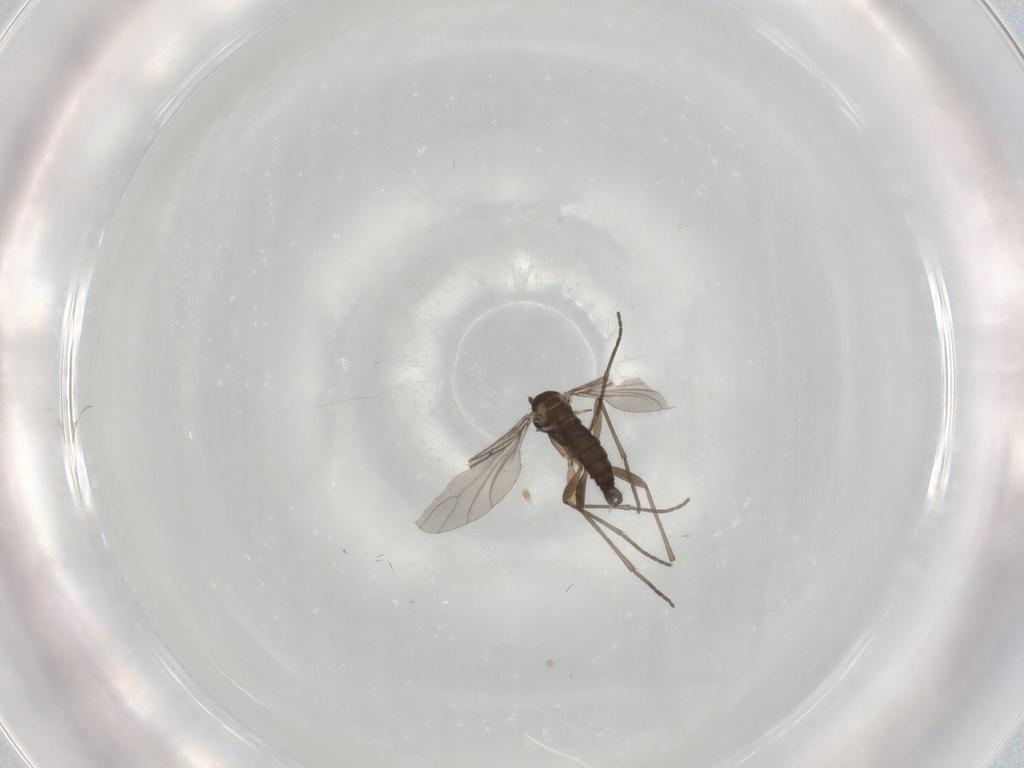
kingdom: Animalia
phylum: Arthropoda
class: Insecta
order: Diptera
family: Sciaridae
